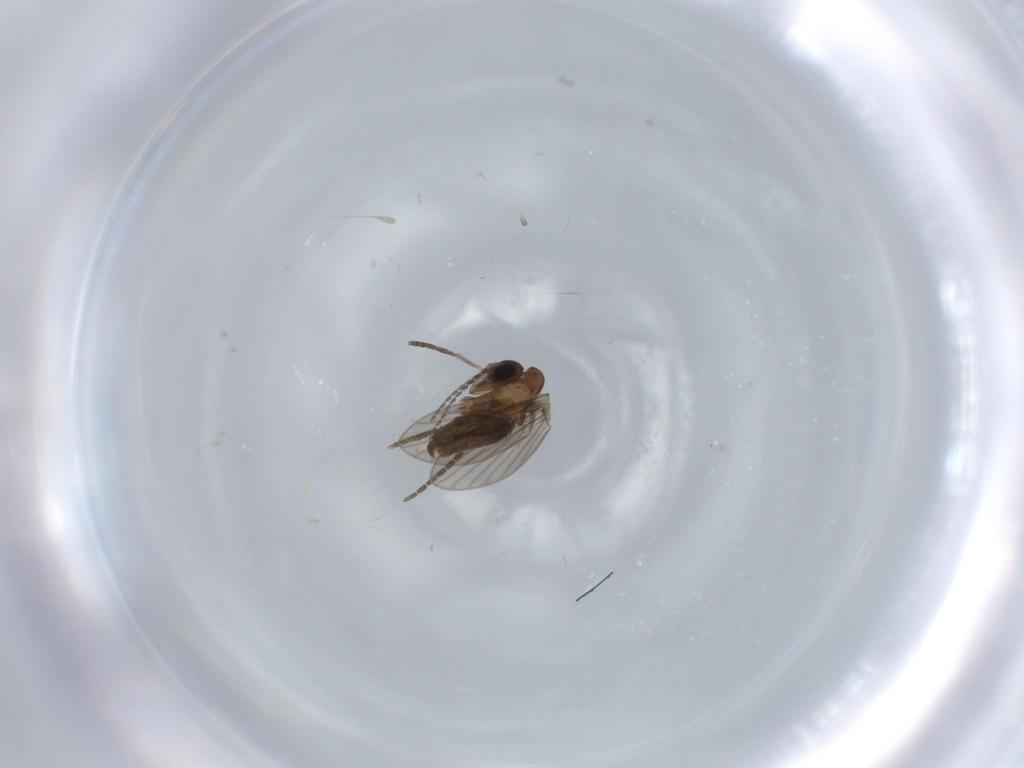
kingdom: Animalia
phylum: Arthropoda
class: Insecta
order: Diptera
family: Sciaridae
